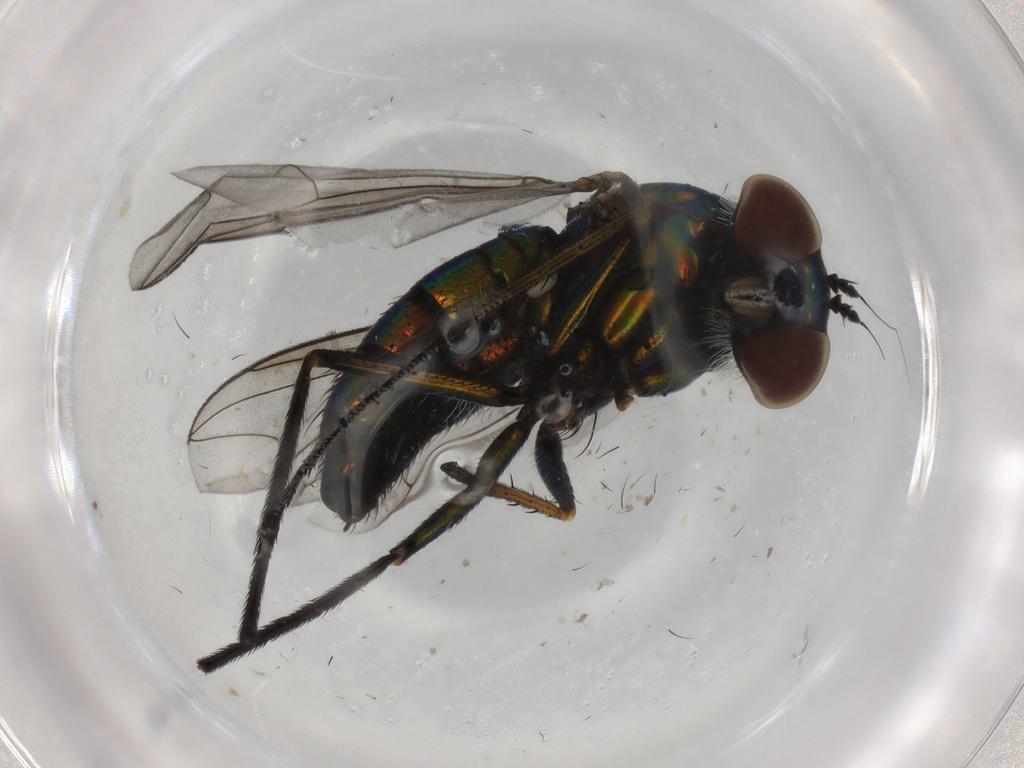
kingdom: Animalia
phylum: Arthropoda
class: Insecta
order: Diptera
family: Dolichopodidae
